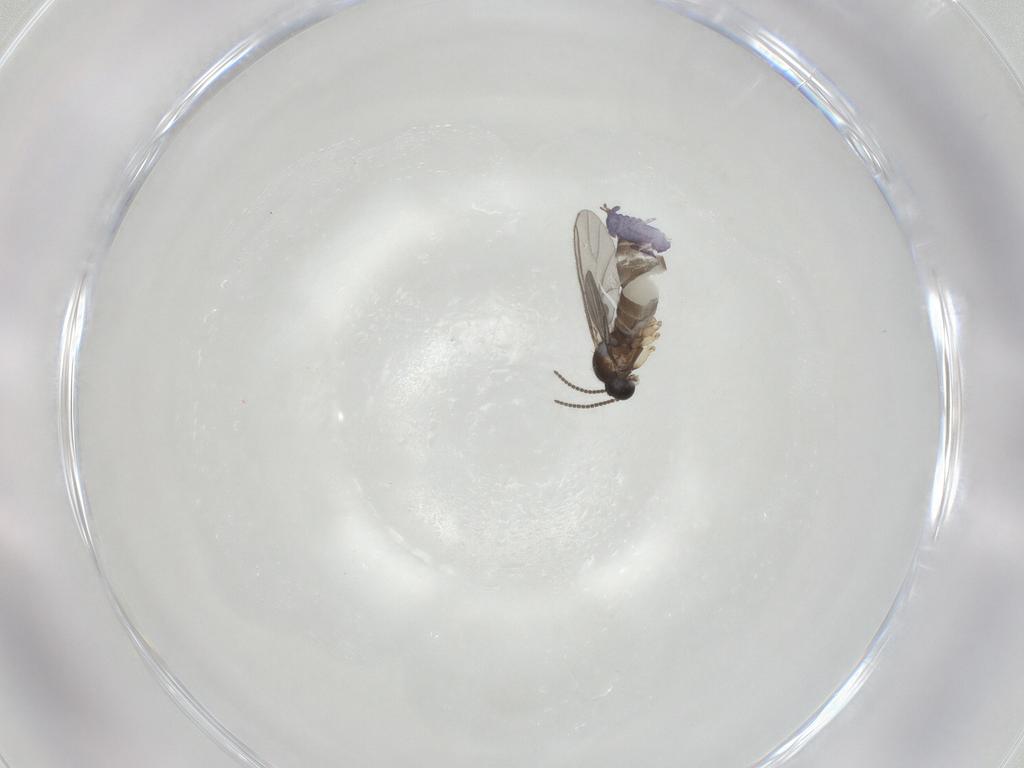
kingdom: Animalia
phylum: Arthropoda
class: Insecta
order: Diptera
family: Sciaridae
